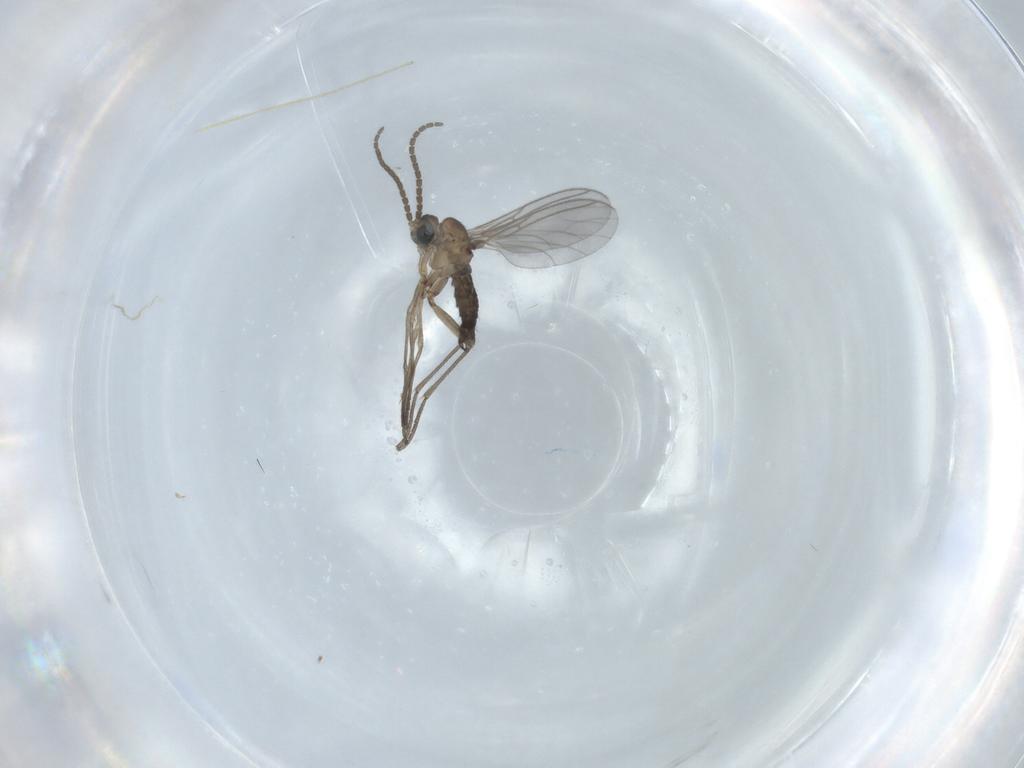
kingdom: Animalia
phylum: Arthropoda
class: Insecta
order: Diptera
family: Sciaridae
